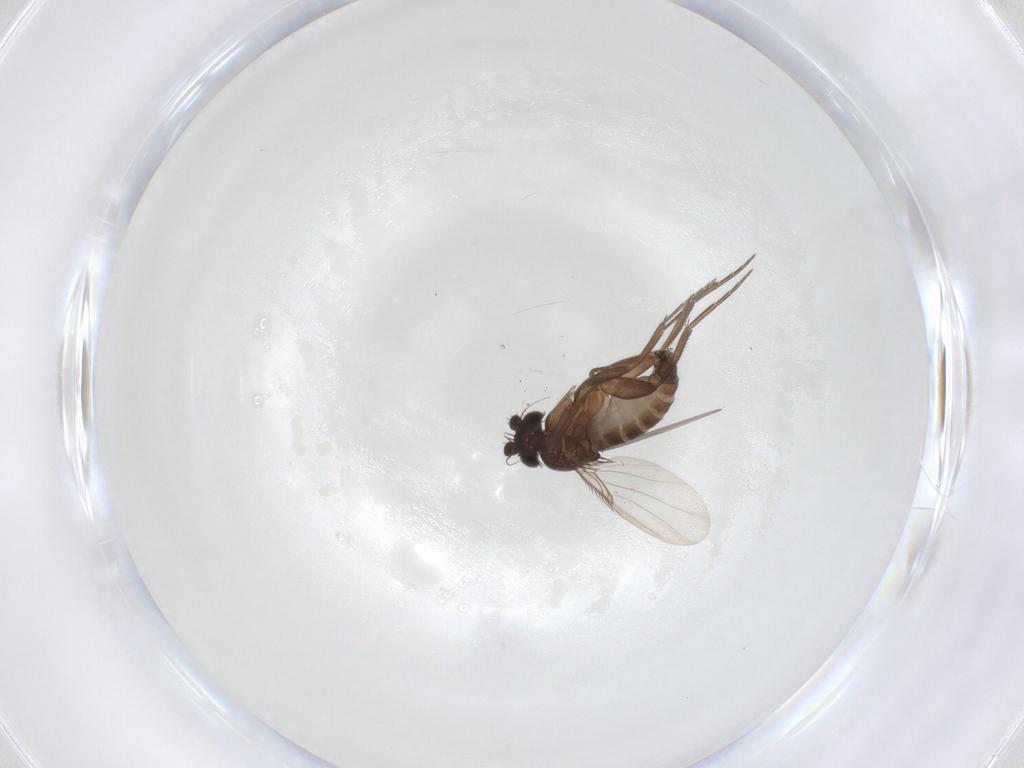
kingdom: Animalia
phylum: Arthropoda
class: Insecta
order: Diptera
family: Phoridae
